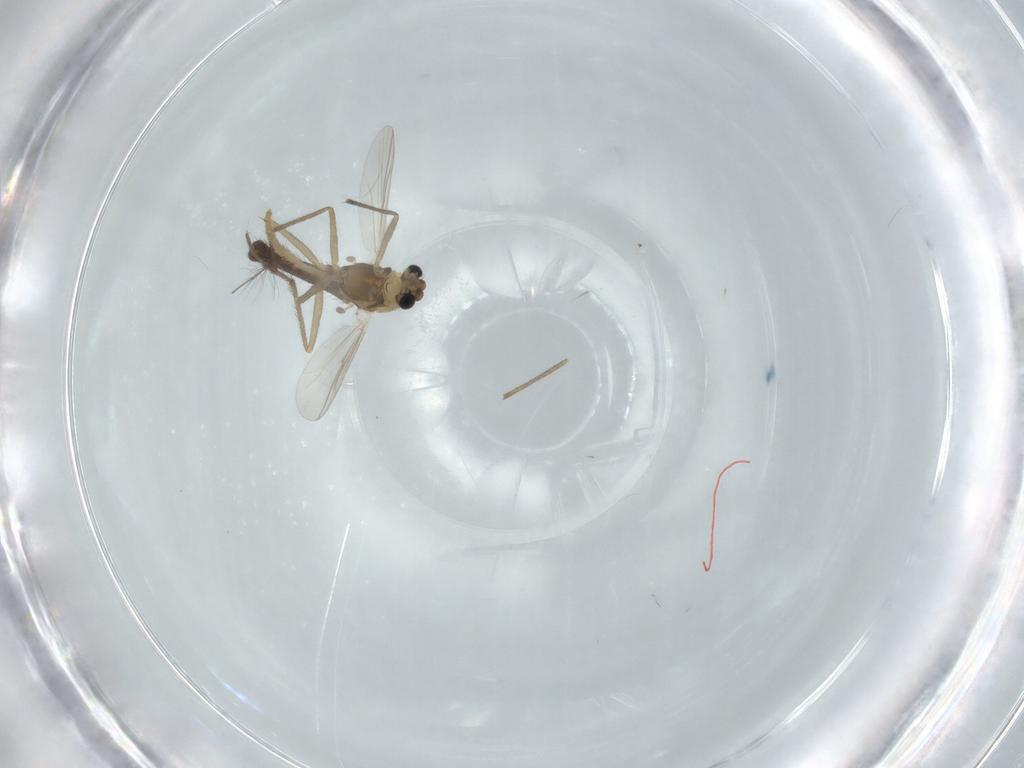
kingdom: Animalia
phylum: Arthropoda
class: Insecta
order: Diptera
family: Chironomidae
